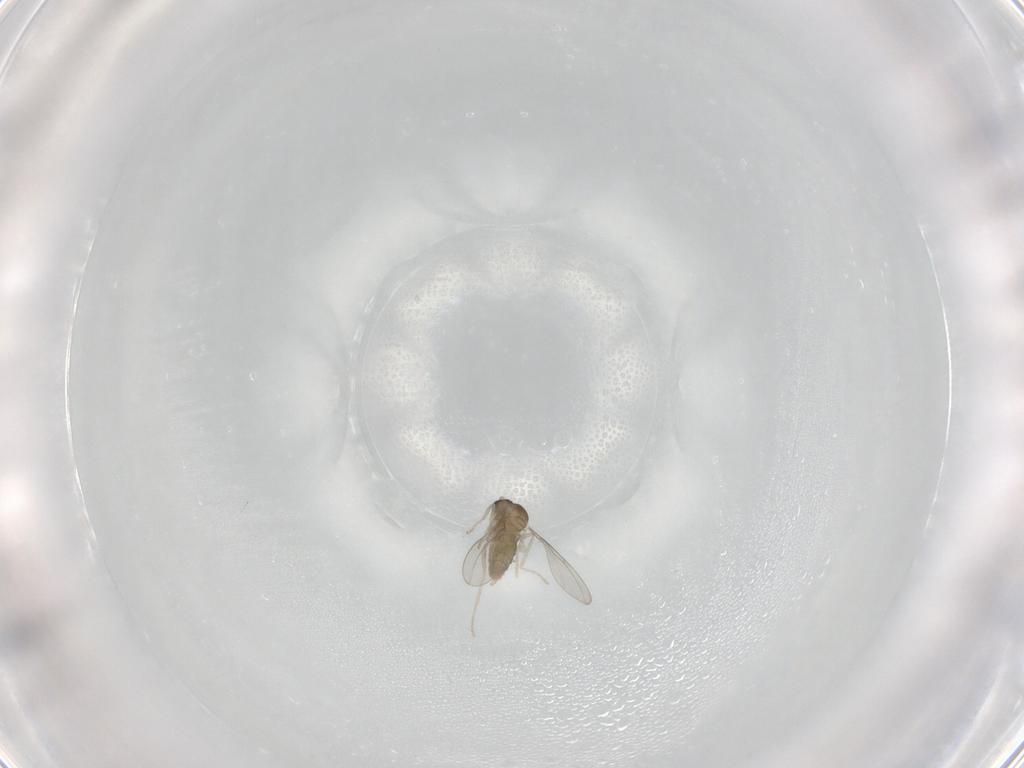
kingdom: Animalia
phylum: Arthropoda
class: Insecta
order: Diptera
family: Cecidomyiidae
